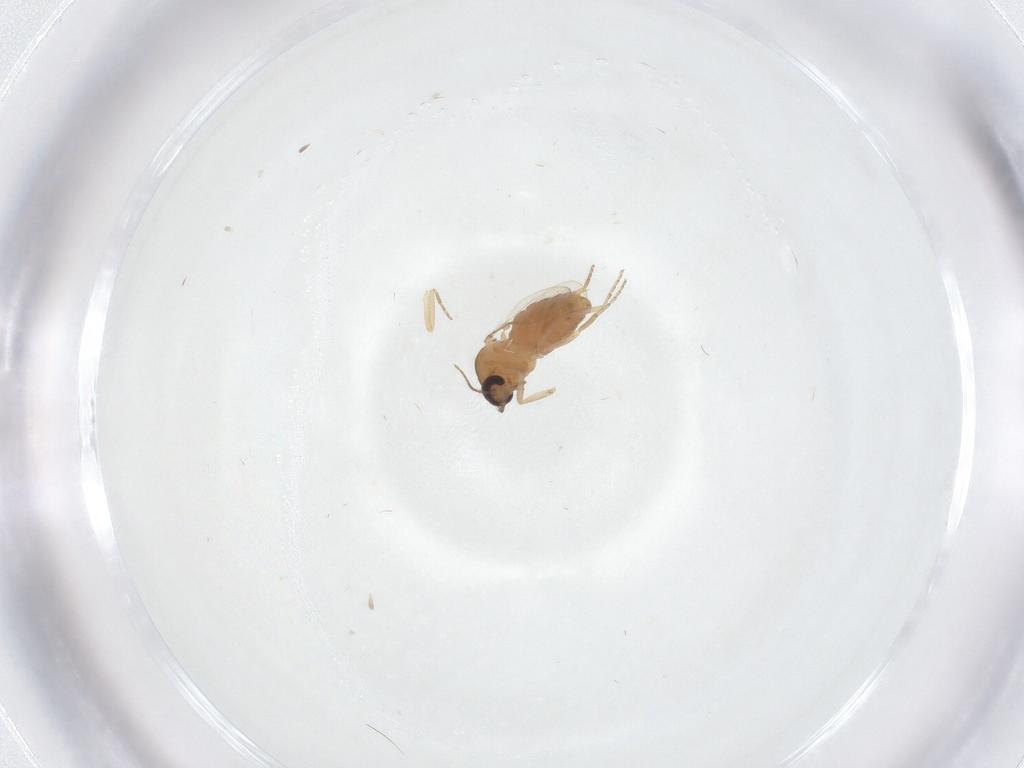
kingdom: Animalia
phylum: Arthropoda
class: Insecta
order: Diptera
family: Ceratopogonidae
